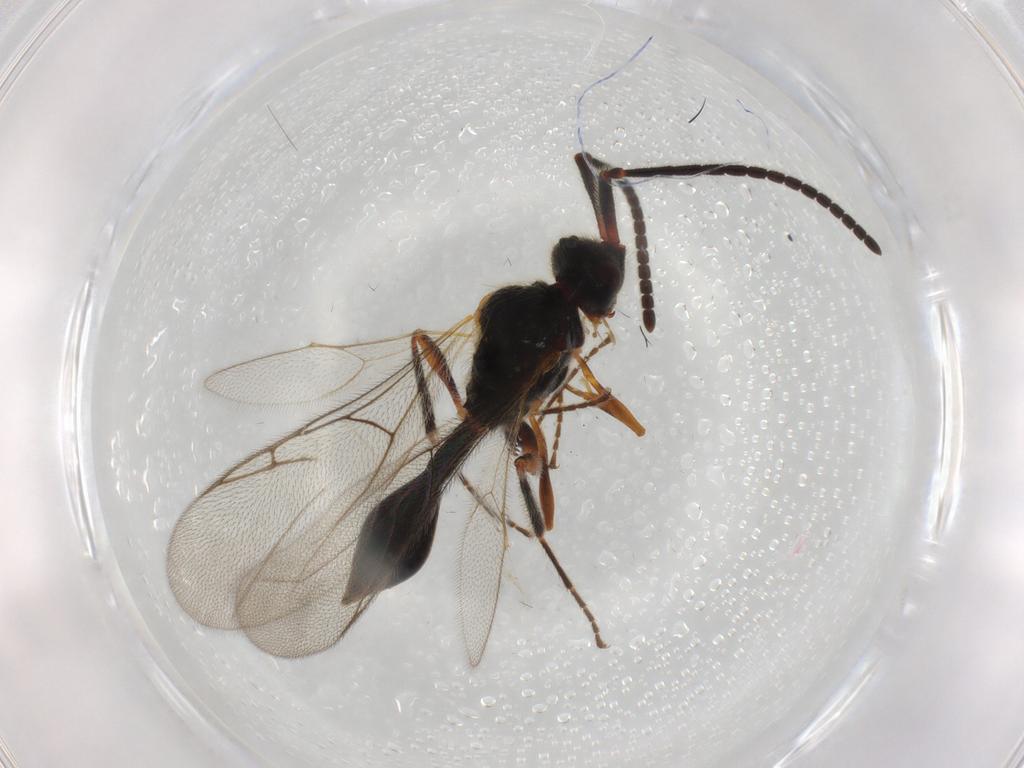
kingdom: Animalia
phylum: Arthropoda
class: Insecta
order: Hymenoptera
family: Diapriidae
